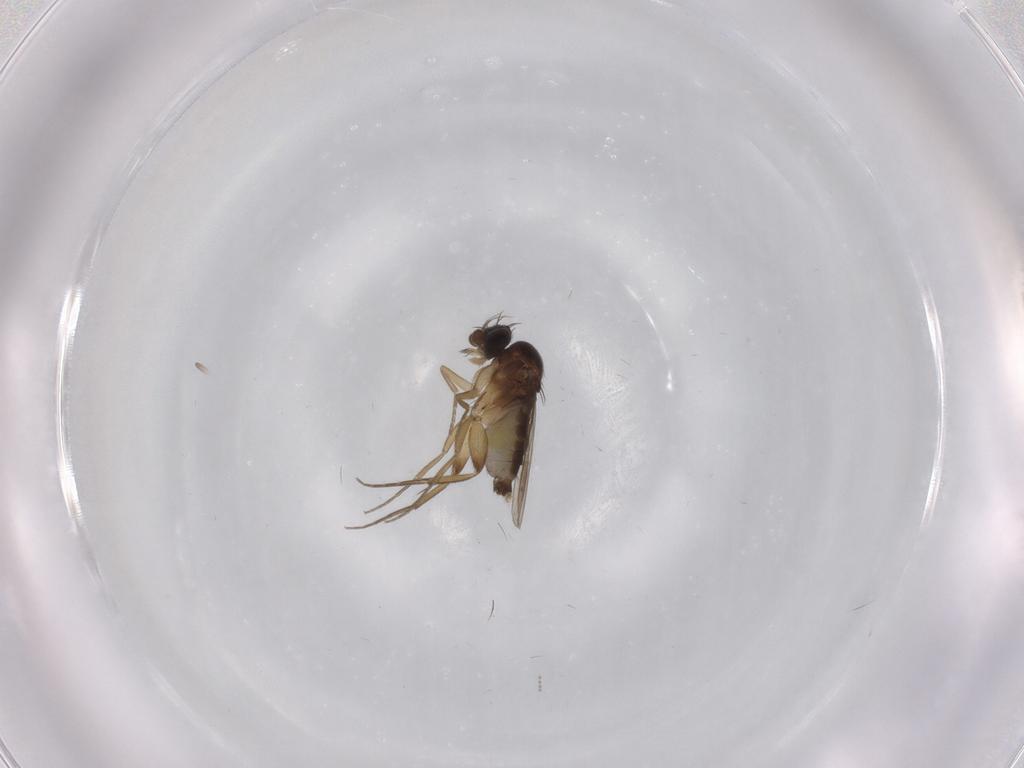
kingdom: Animalia
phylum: Arthropoda
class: Insecta
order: Diptera
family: Phoridae
